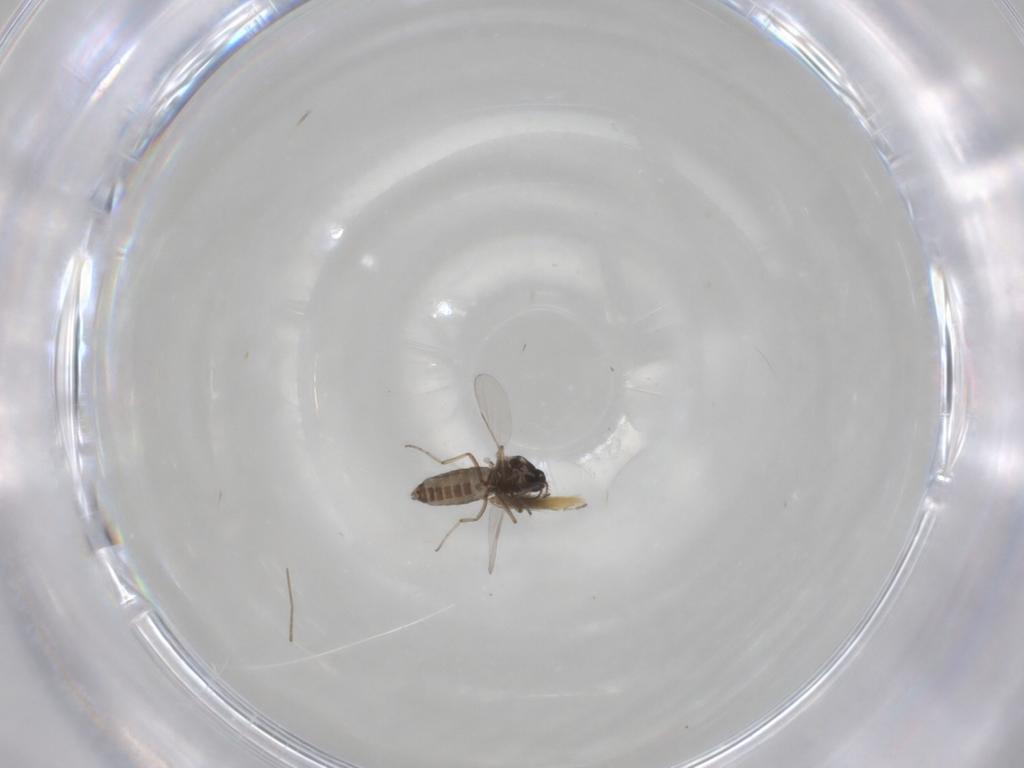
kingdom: Animalia
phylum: Arthropoda
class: Insecta
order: Diptera
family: Ceratopogonidae
